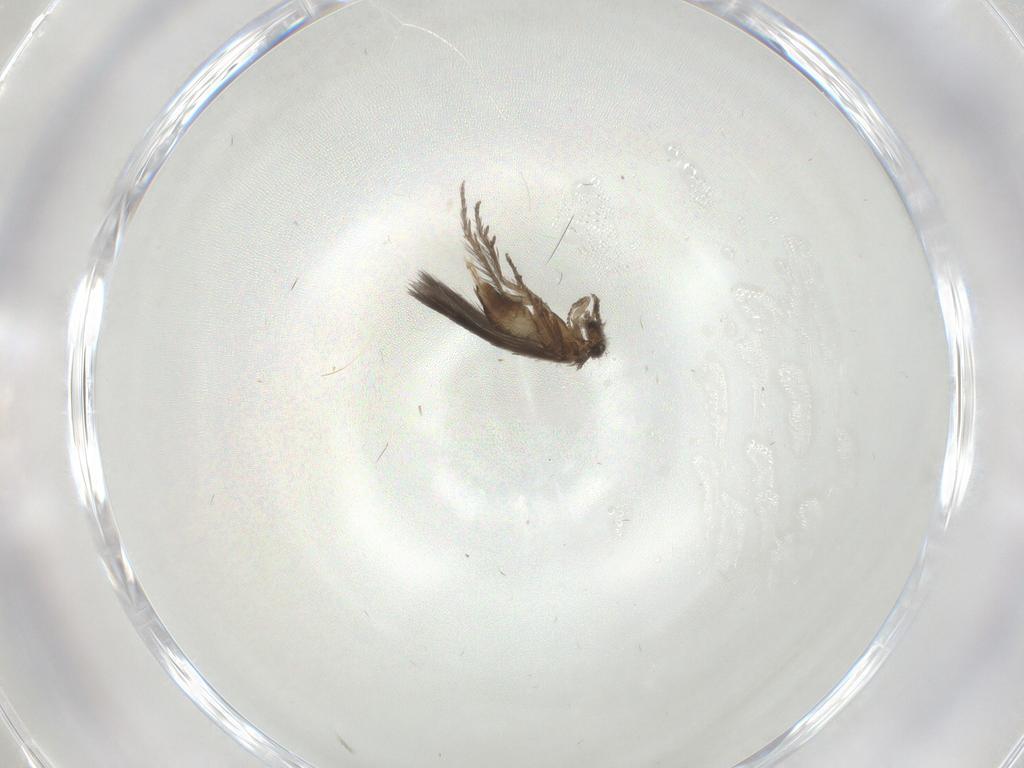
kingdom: Animalia
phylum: Arthropoda
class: Insecta
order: Trichoptera
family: Hydroptilidae
